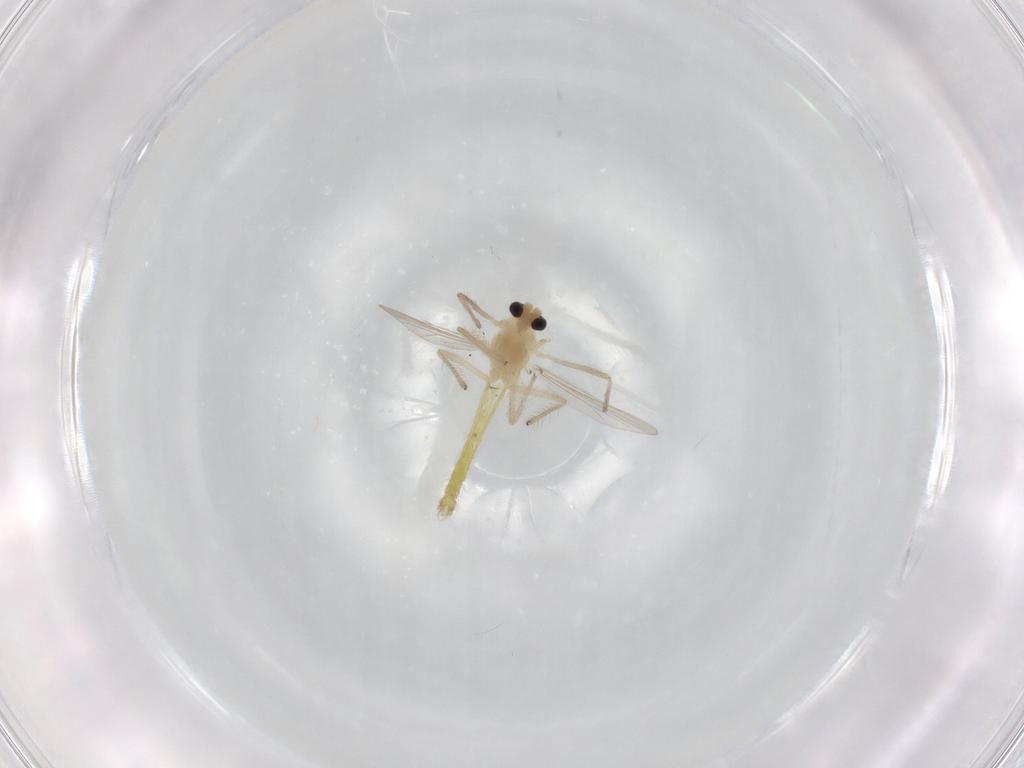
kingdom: Animalia
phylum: Arthropoda
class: Insecta
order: Diptera
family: Chironomidae
